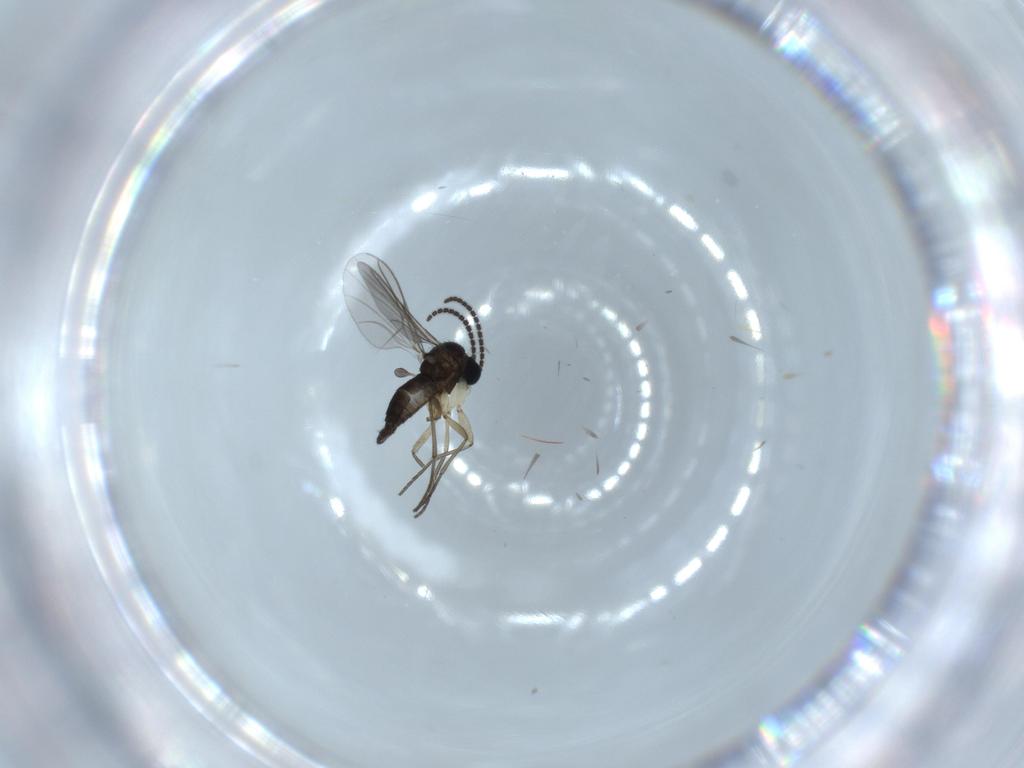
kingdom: Animalia
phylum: Arthropoda
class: Insecta
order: Diptera
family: Sciaridae
